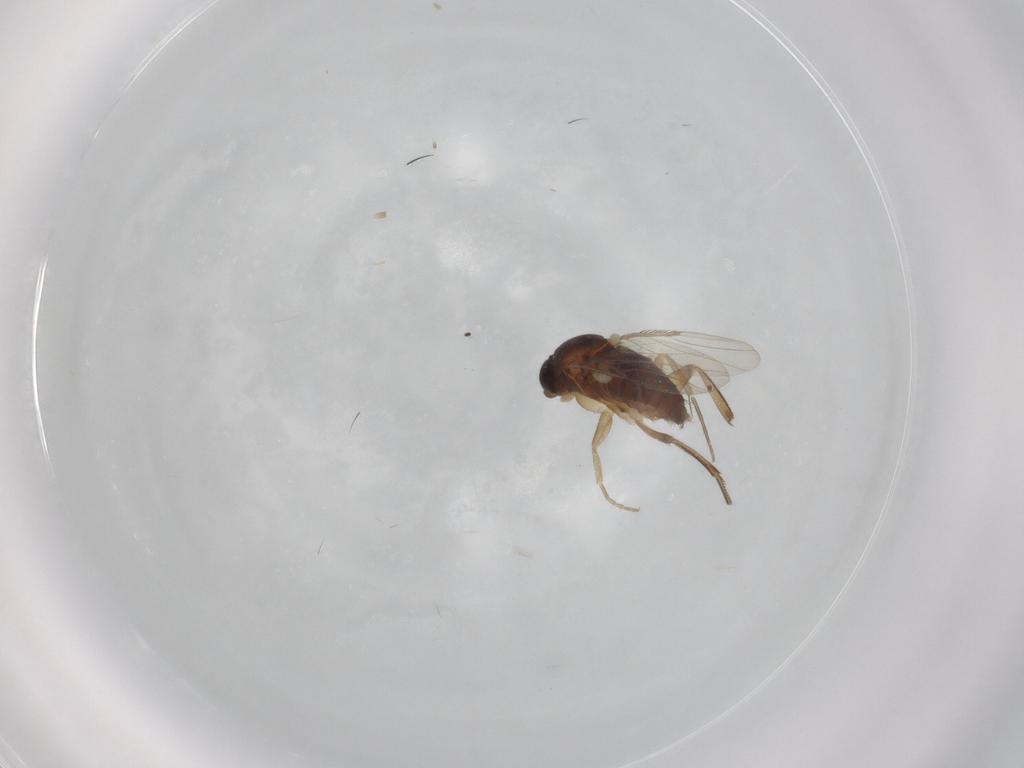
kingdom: Animalia
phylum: Arthropoda
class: Insecta
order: Diptera
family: Phoridae
